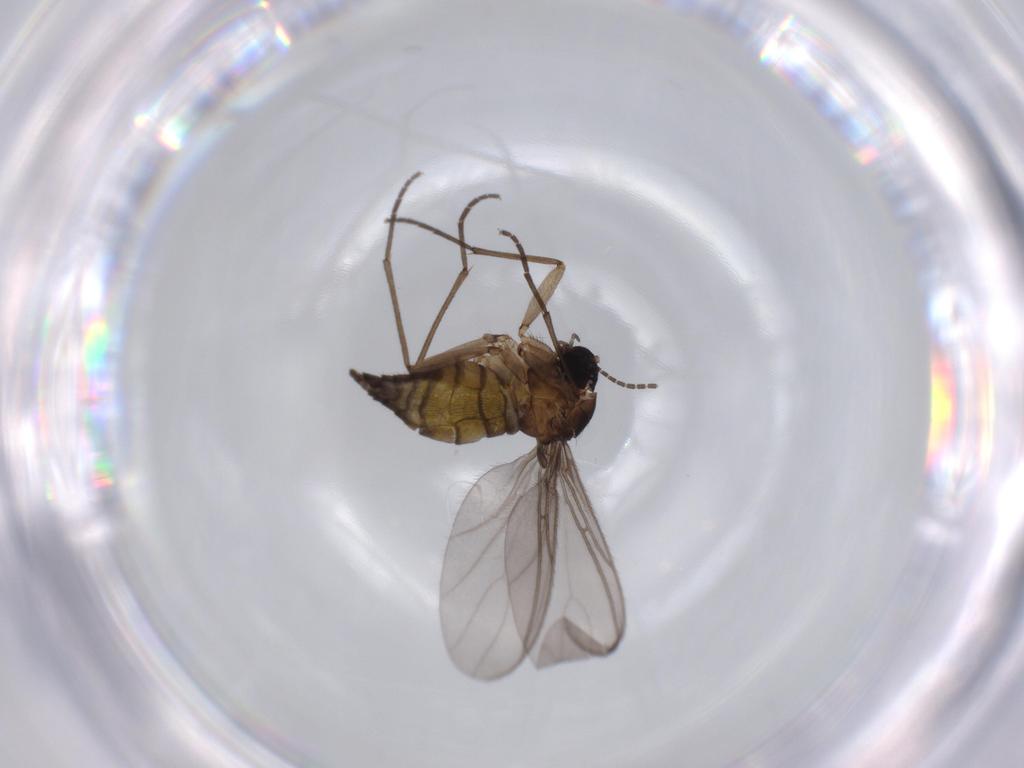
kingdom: Animalia
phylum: Arthropoda
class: Insecta
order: Diptera
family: Sciaridae
